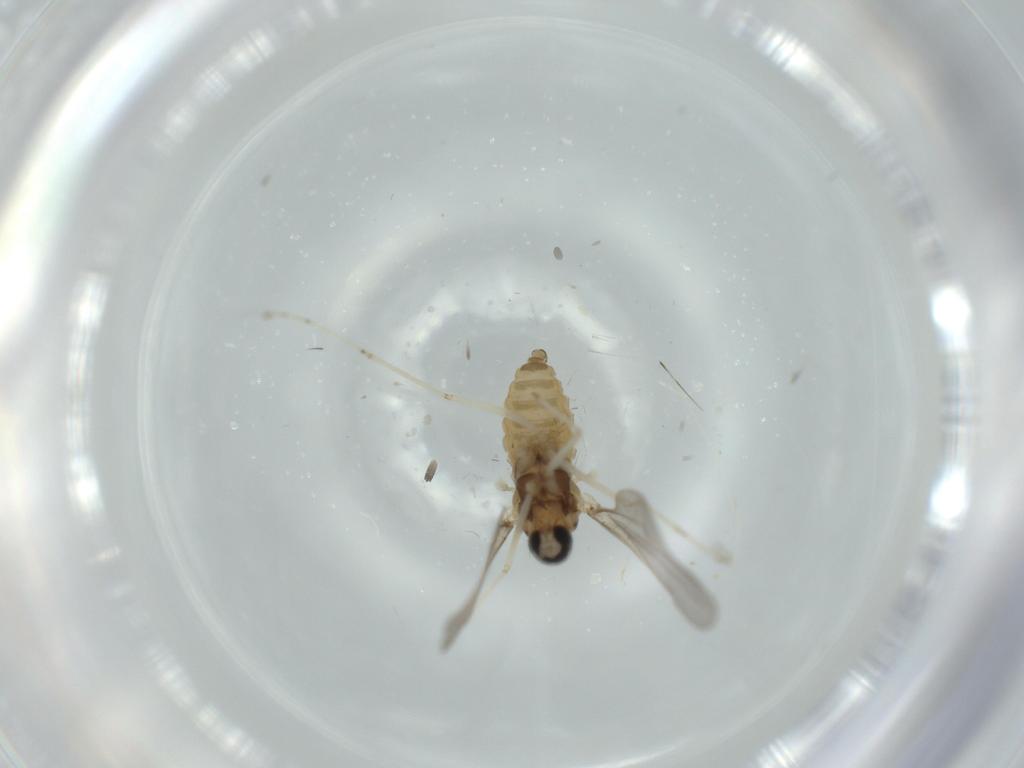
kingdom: Animalia
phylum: Arthropoda
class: Insecta
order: Diptera
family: Cecidomyiidae
